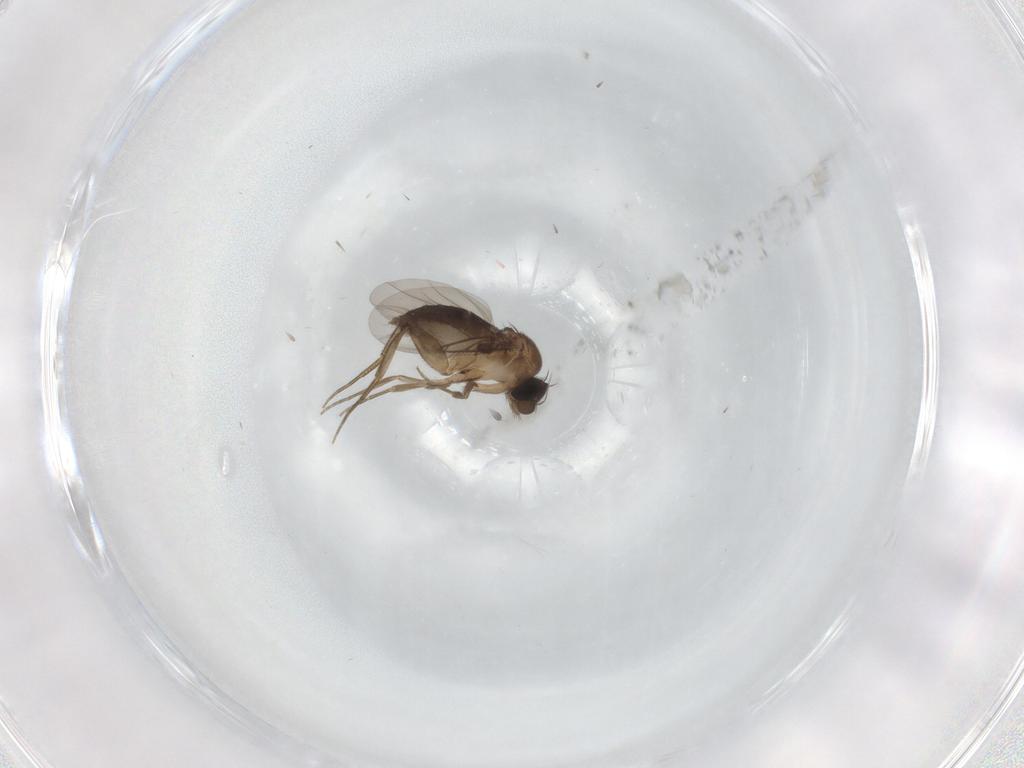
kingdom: Animalia
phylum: Arthropoda
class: Insecta
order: Diptera
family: Phoridae
